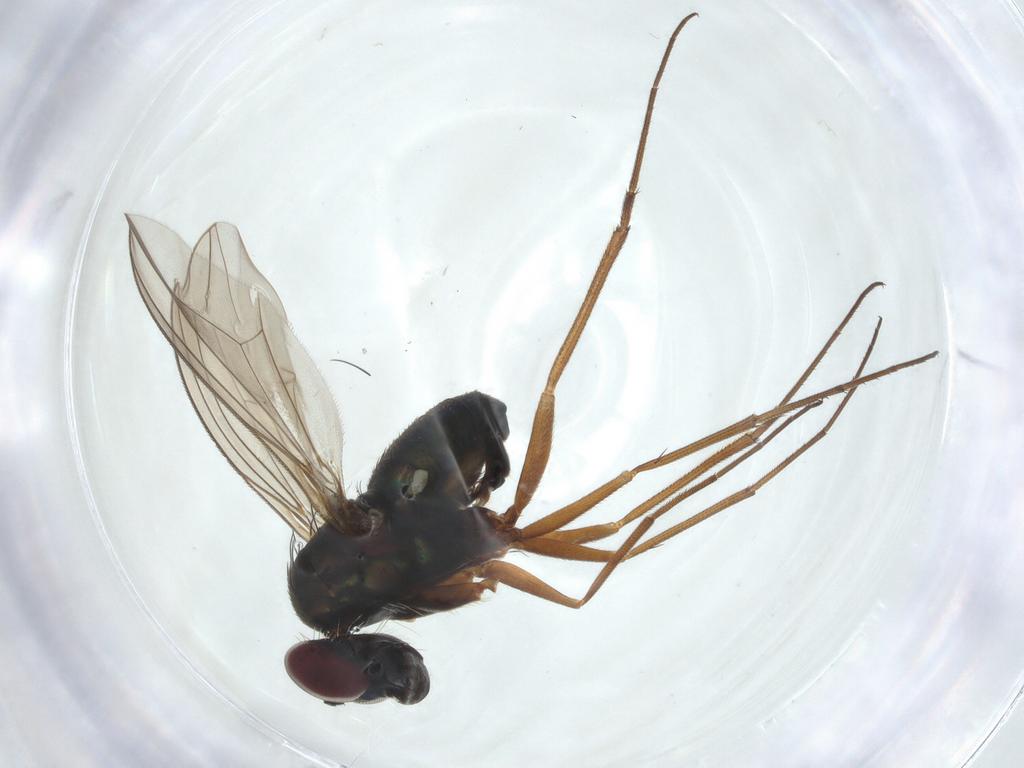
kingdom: Animalia
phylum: Arthropoda
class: Insecta
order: Diptera
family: Dolichopodidae
